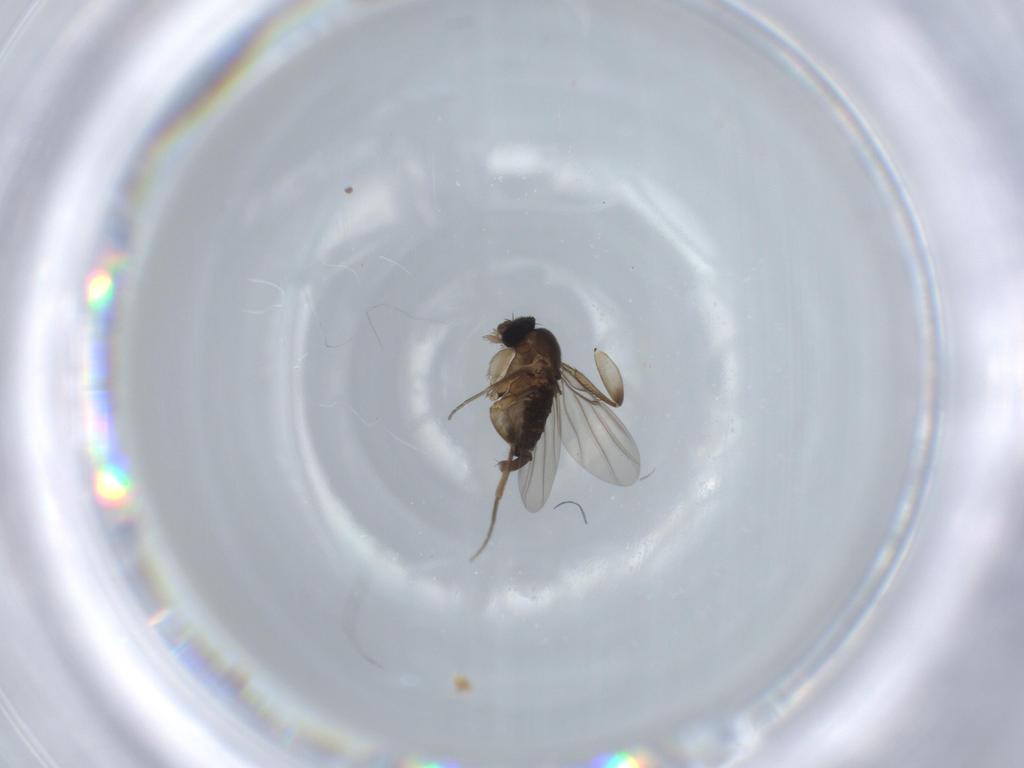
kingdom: Animalia
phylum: Arthropoda
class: Insecta
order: Diptera
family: Phoridae
